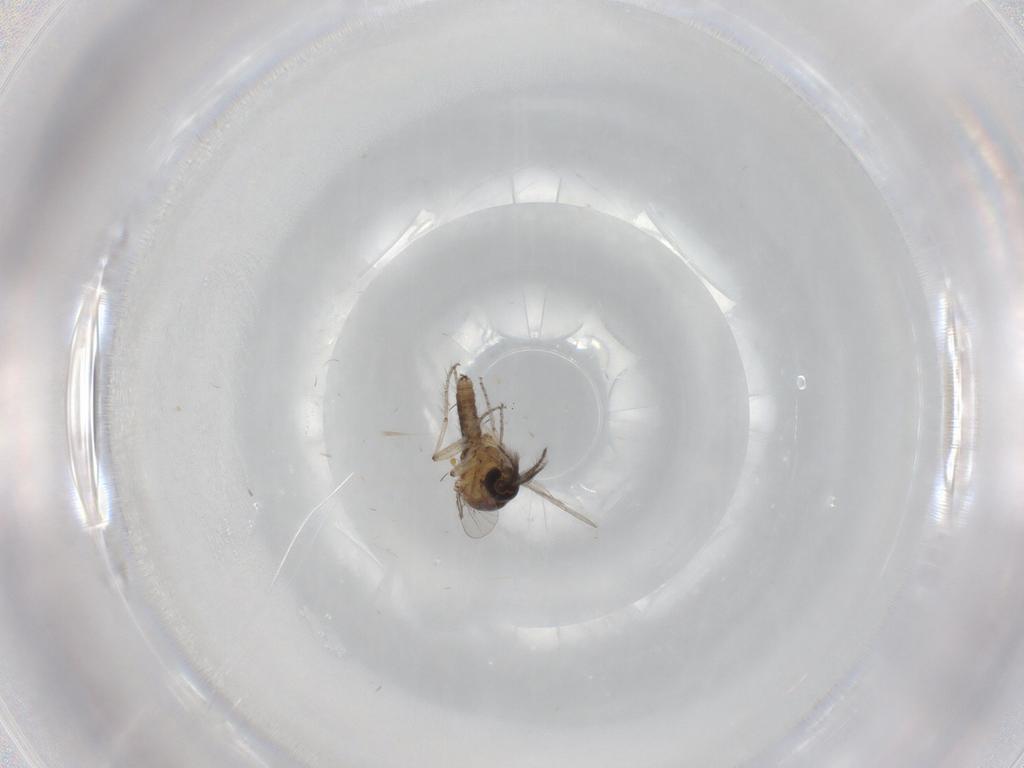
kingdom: Animalia
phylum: Arthropoda
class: Insecta
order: Diptera
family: Ceratopogonidae
